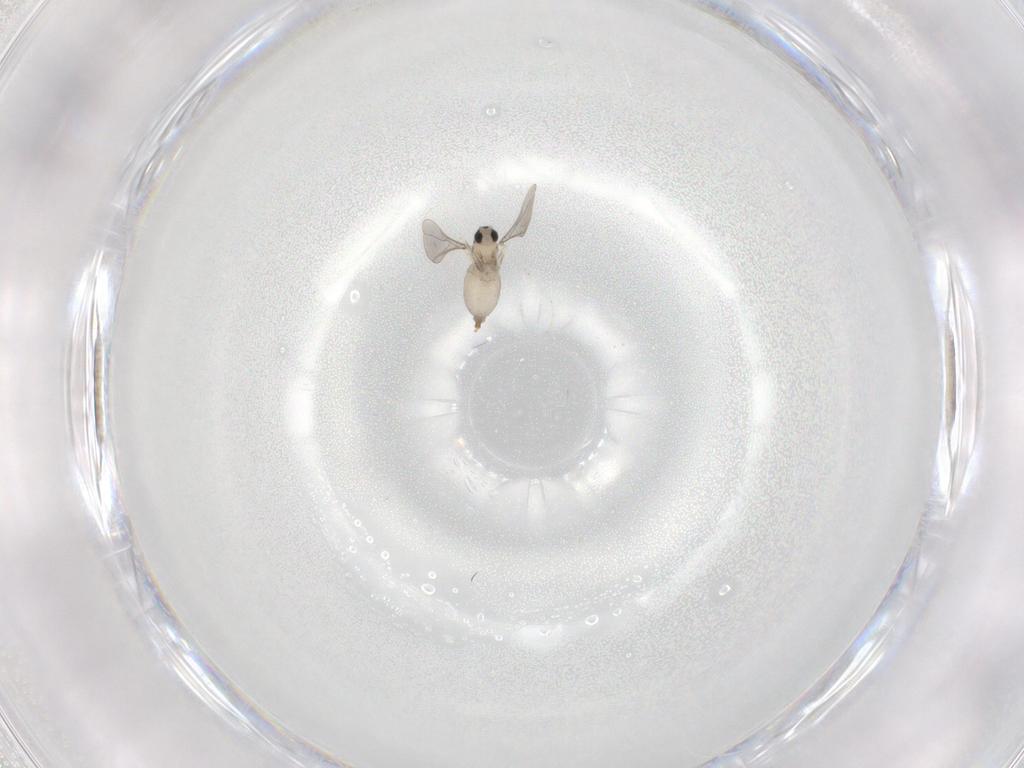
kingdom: Animalia
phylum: Arthropoda
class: Insecta
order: Diptera
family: Cecidomyiidae
